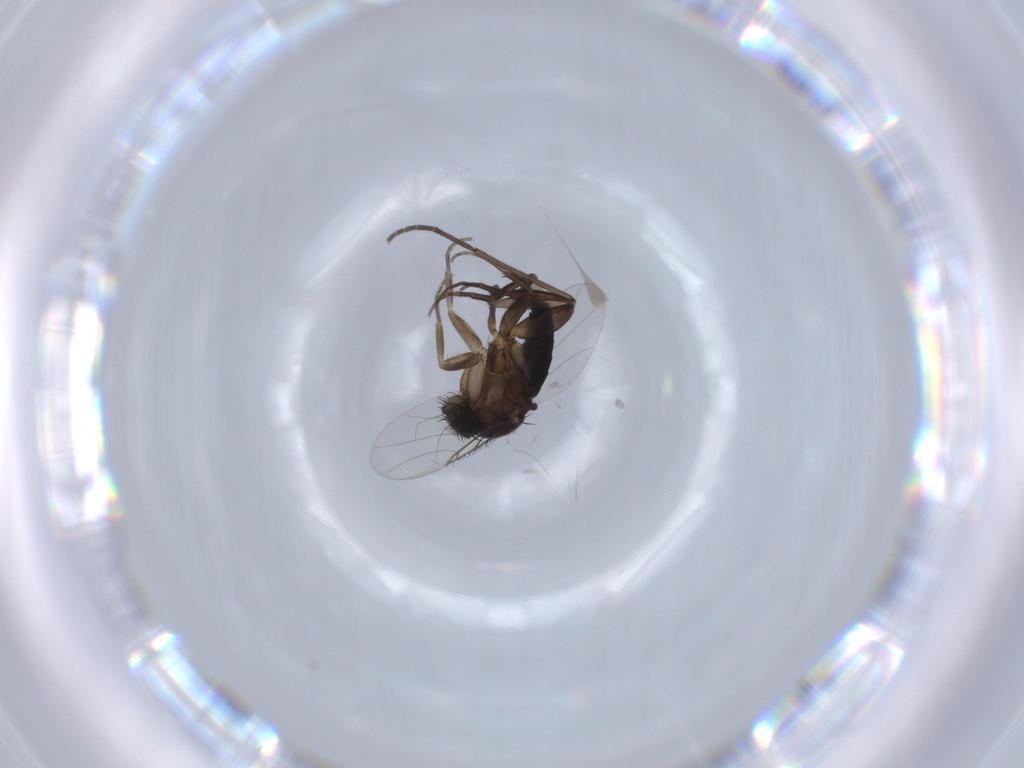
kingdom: Animalia
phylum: Arthropoda
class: Insecta
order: Diptera
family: Phoridae
